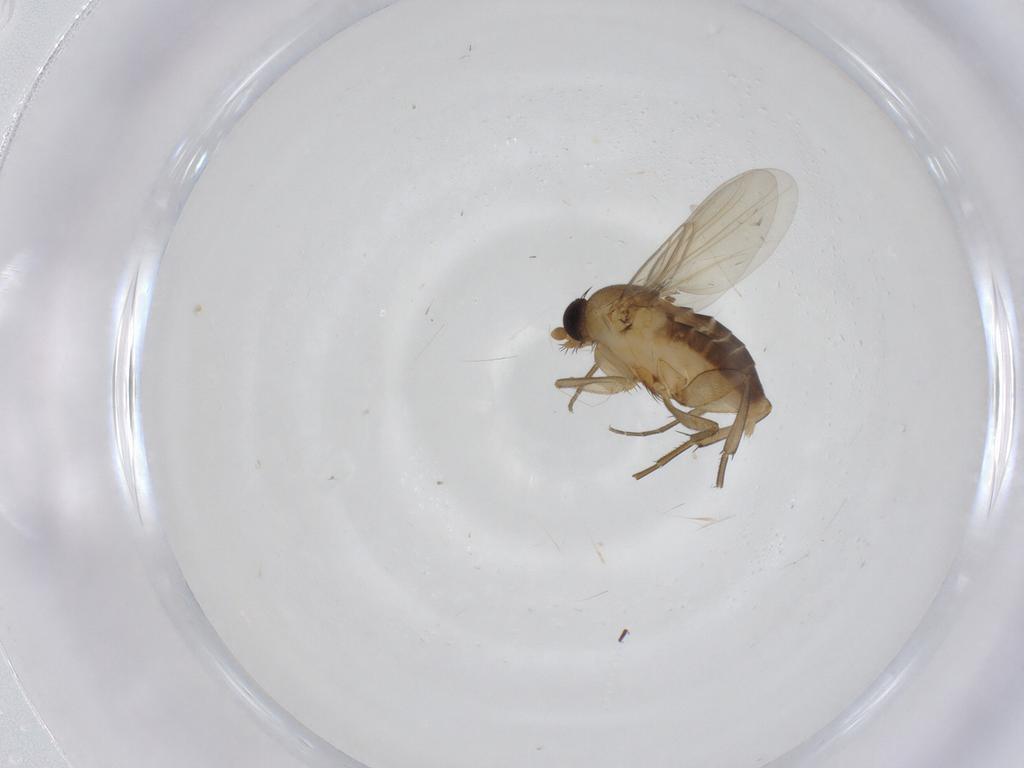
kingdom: Animalia
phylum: Arthropoda
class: Insecta
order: Diptera
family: Phoridae
